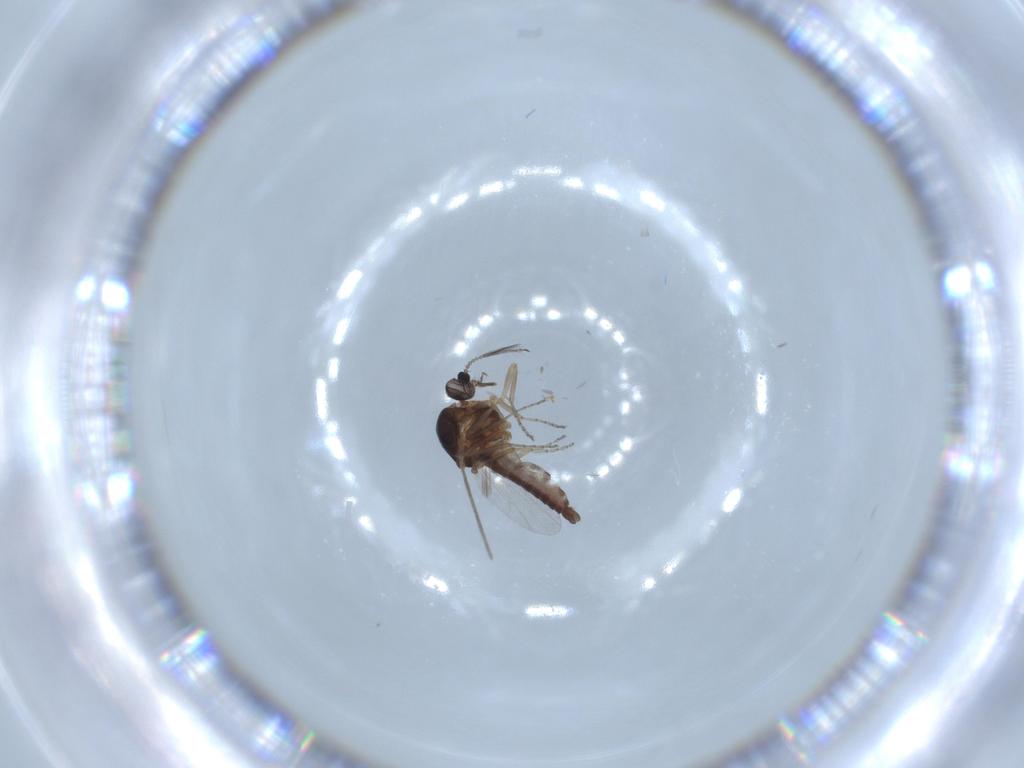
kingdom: Animalia
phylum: Arthropoda
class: Insecta
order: Diptera
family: Ceratopogonidae
